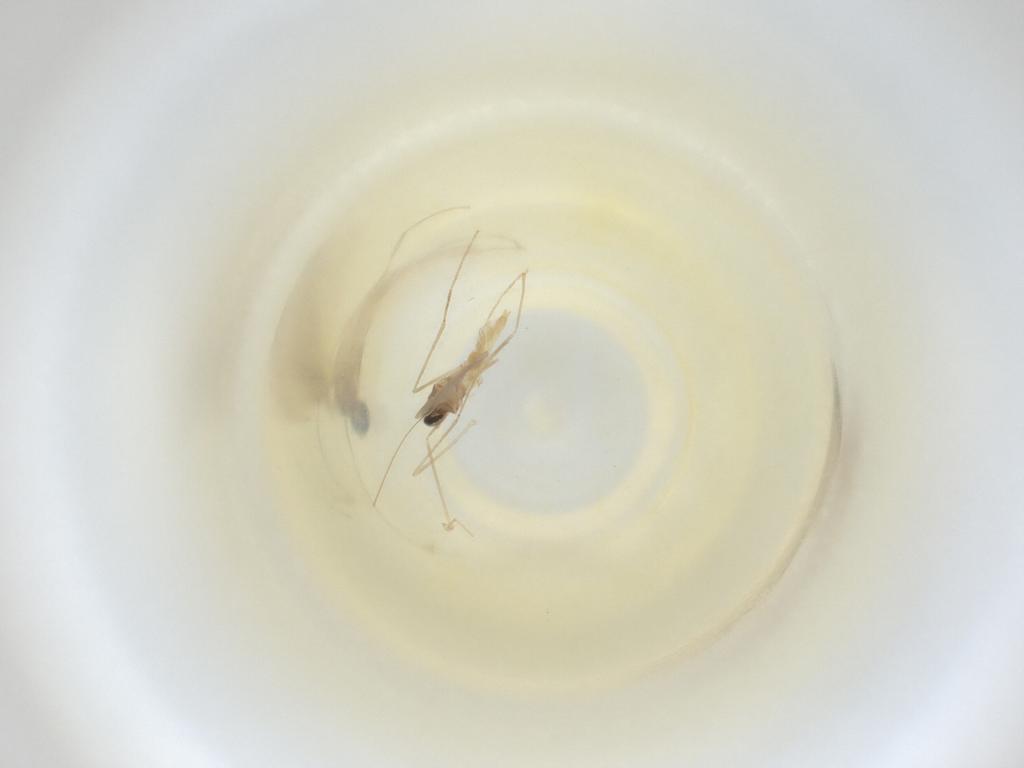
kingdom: Animalia
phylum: Arthropoda
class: Insecta
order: Diptera
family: Cecidomyiidae
